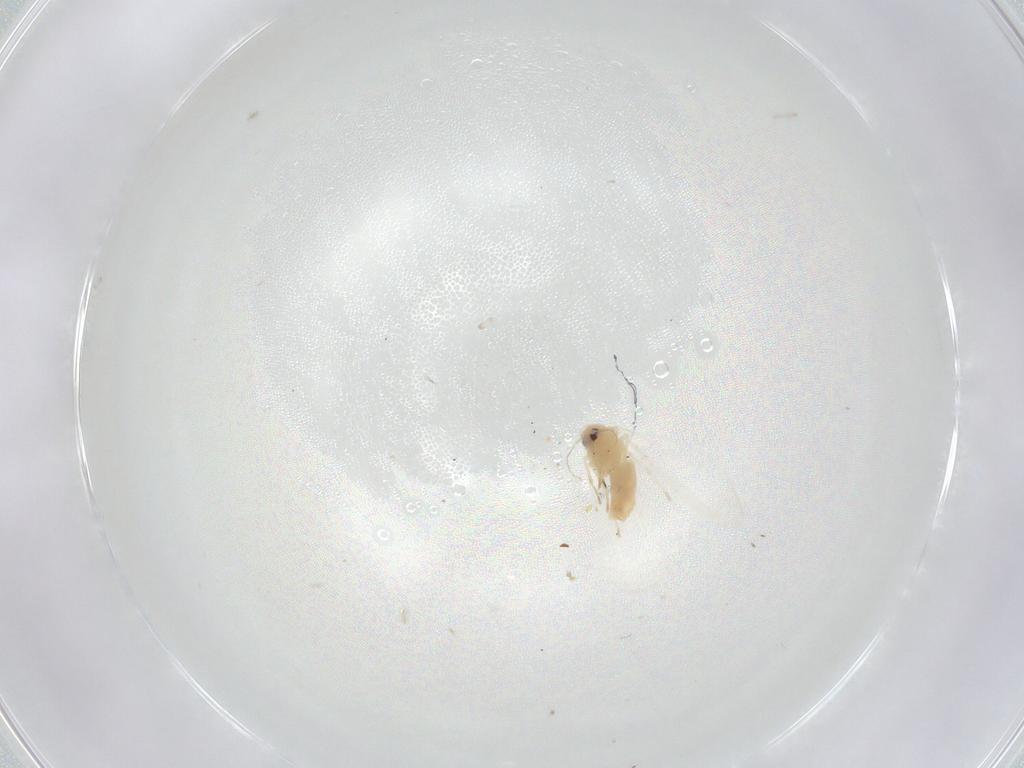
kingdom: Animalia
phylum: Arthropoda
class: Insecta
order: Hemiptera
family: Aleyrodidae
